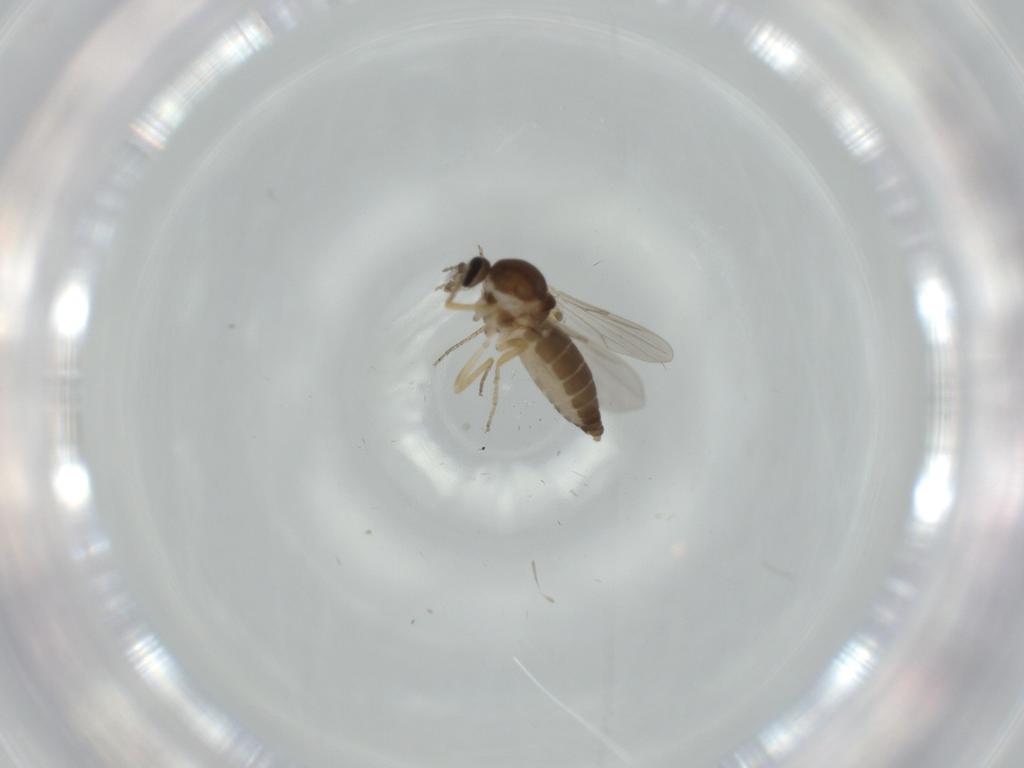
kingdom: Animalia
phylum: Arthropoda
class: Insecta
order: Diptera
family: Ceratopogonidae
